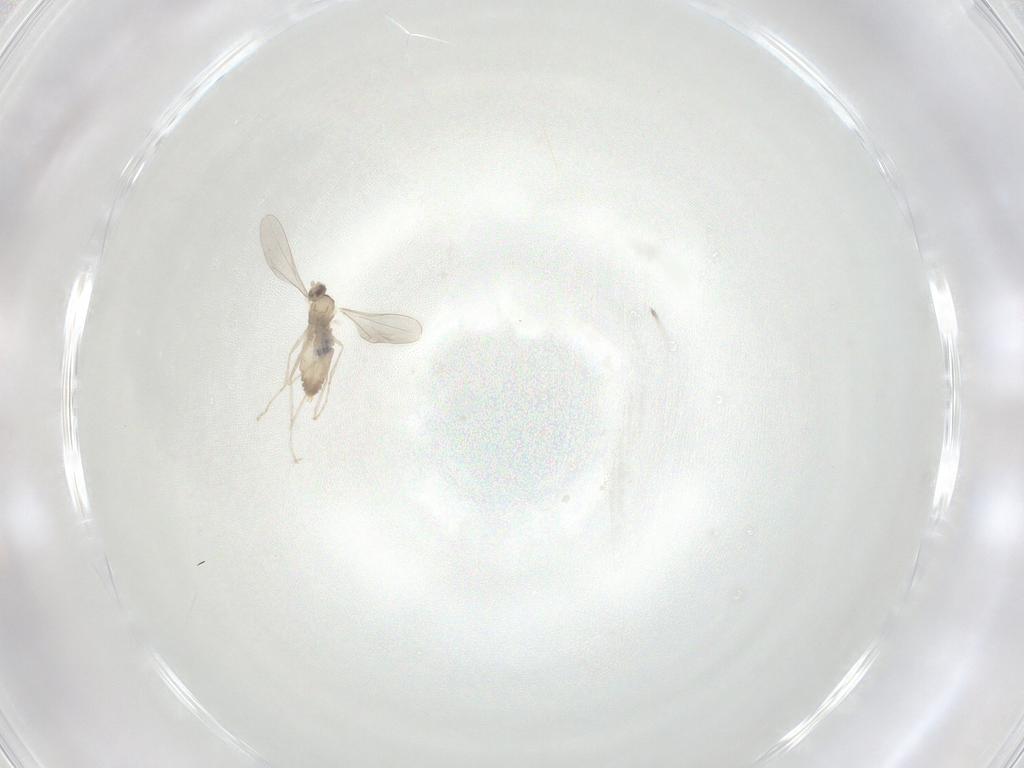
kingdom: Animalia
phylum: Arthropoda
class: Insecta
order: Diptera
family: Cecidomyiidae
